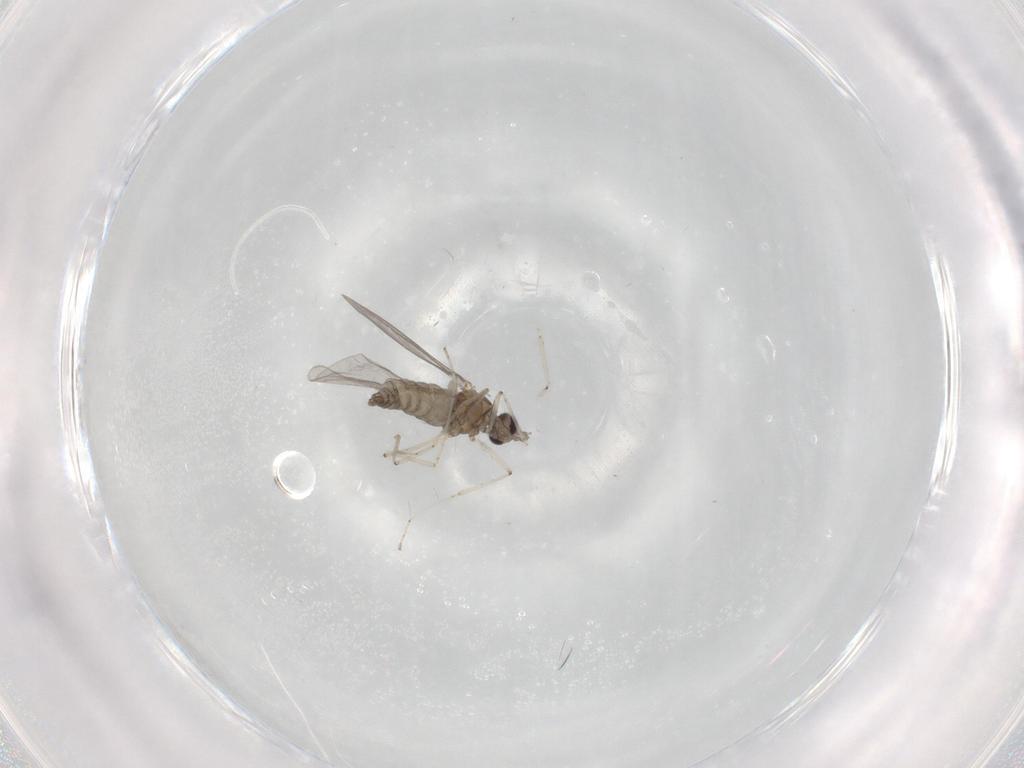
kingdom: Animalia
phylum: Arthropoda
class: Insecta
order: Diptera
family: Cecidomyiidae
